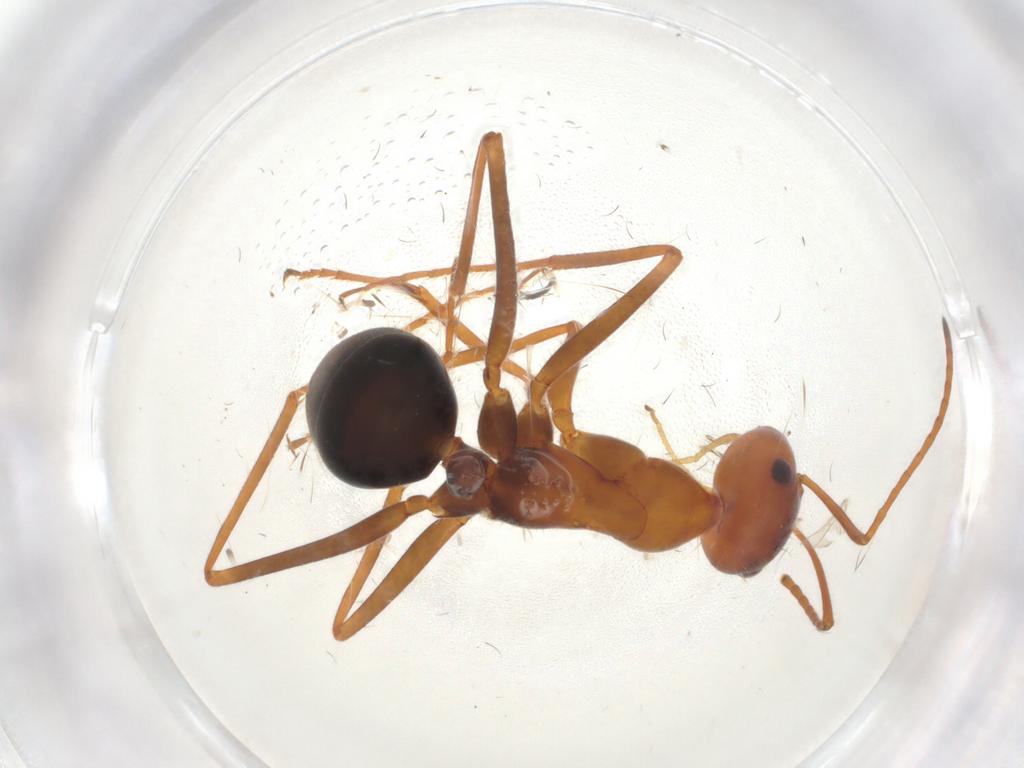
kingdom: Animalia
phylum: Arthropoda
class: Insecta
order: Hymenoptera
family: Formicidae
